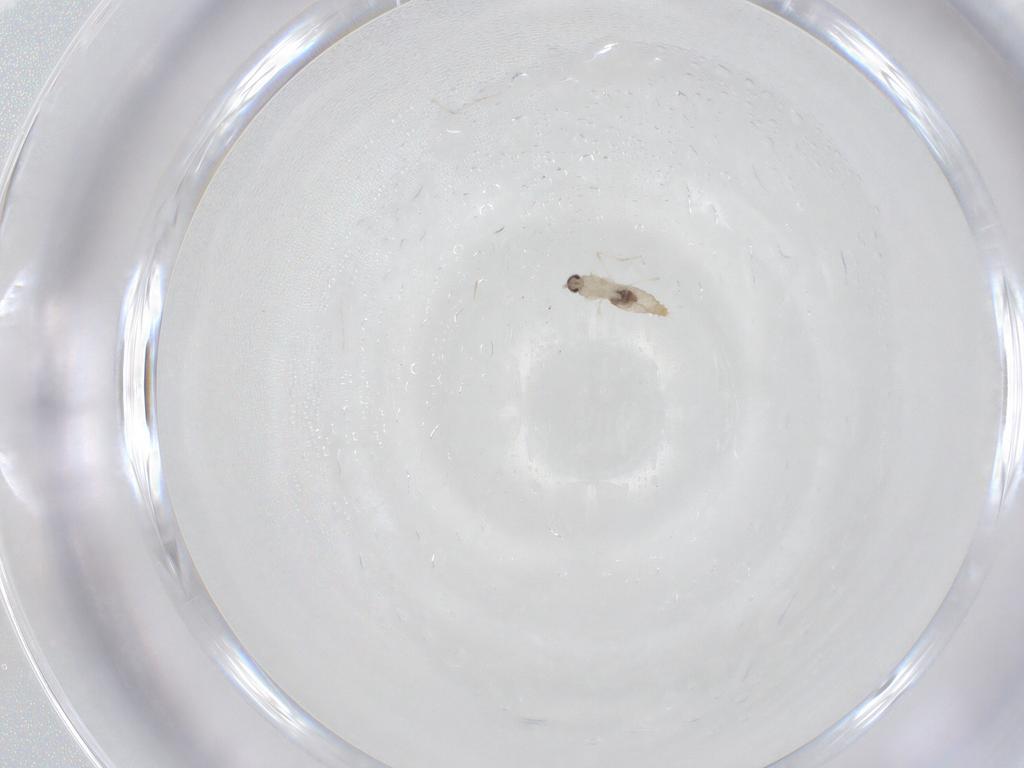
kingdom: Animalia
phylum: Arthropoda
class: Insecta
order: Diptera
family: Cecidomyiidae
